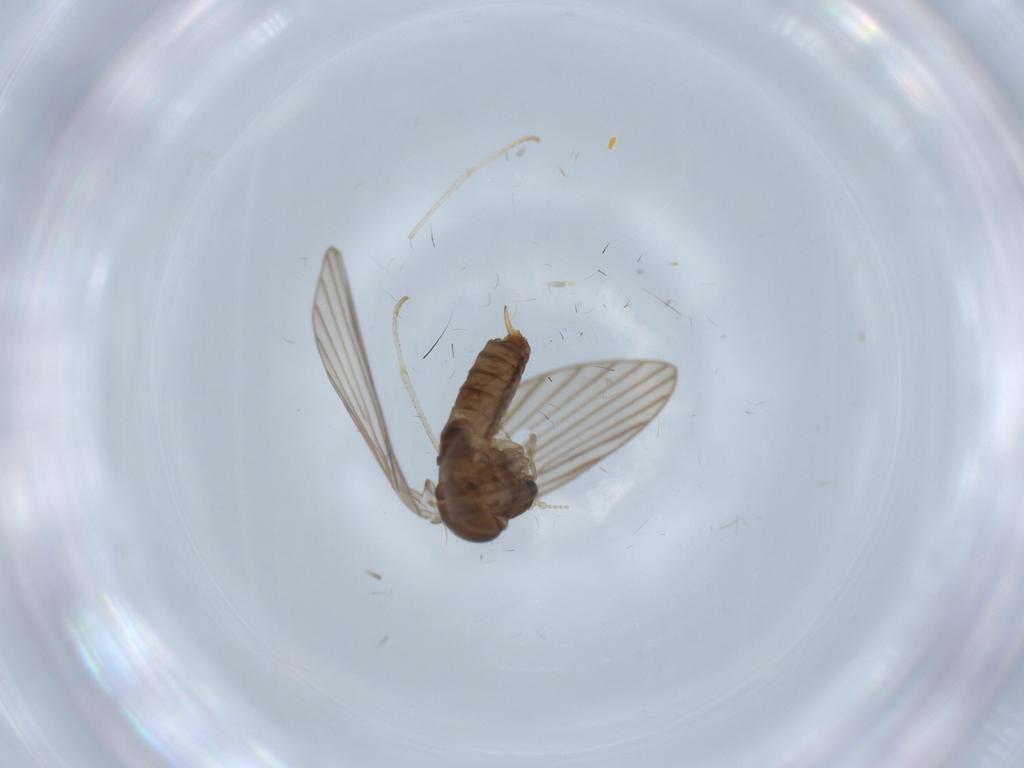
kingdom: Animalia
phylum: Arthropoda
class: Insecta
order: Diptera
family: Psychodidae
